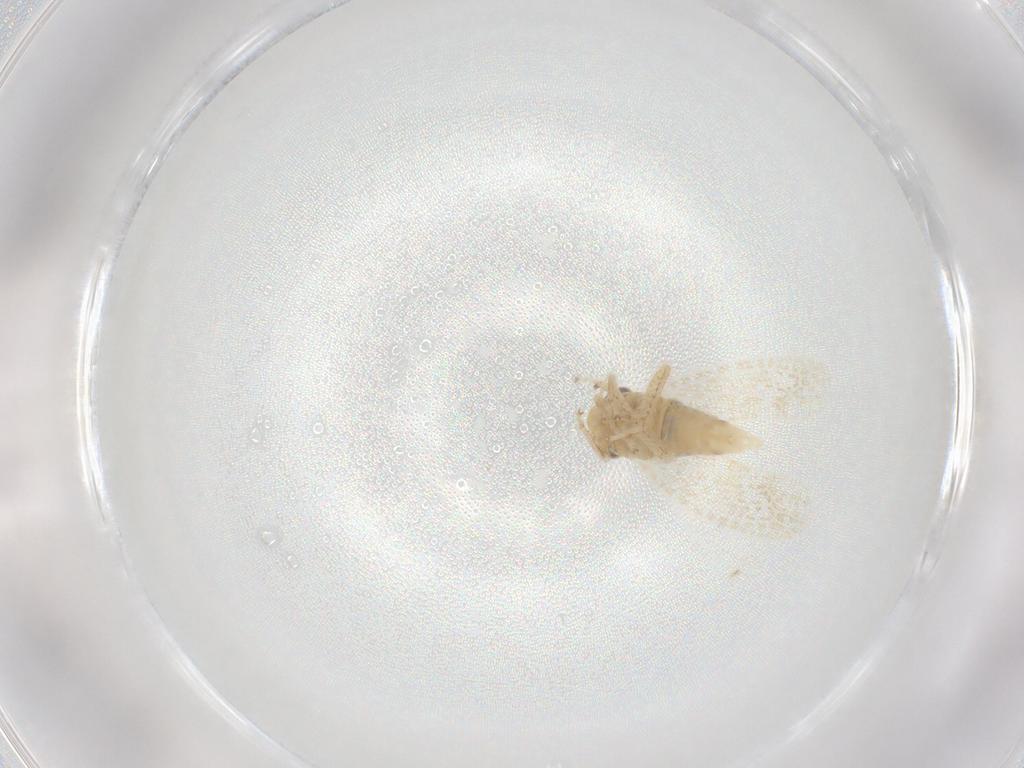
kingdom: Animalia
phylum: Arthropoda
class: Insecta
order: Hemiptera
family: Cicadellidae
